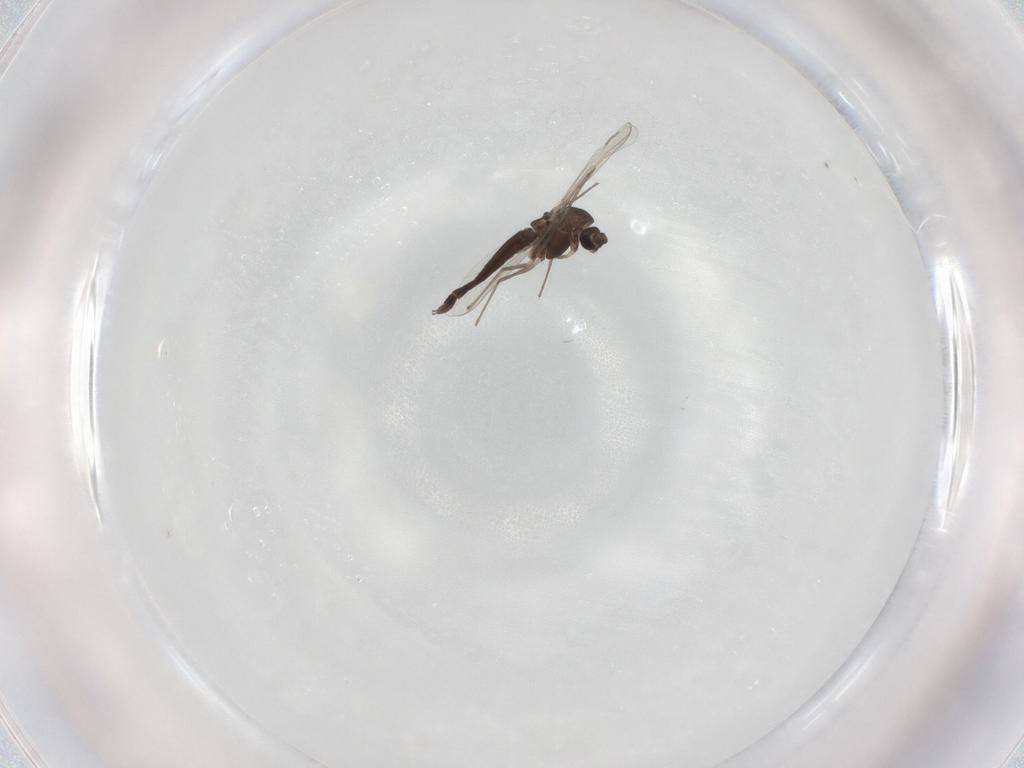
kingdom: Animalia
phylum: Arthropoda
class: Insecta
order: Diptera
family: Chironomidae
